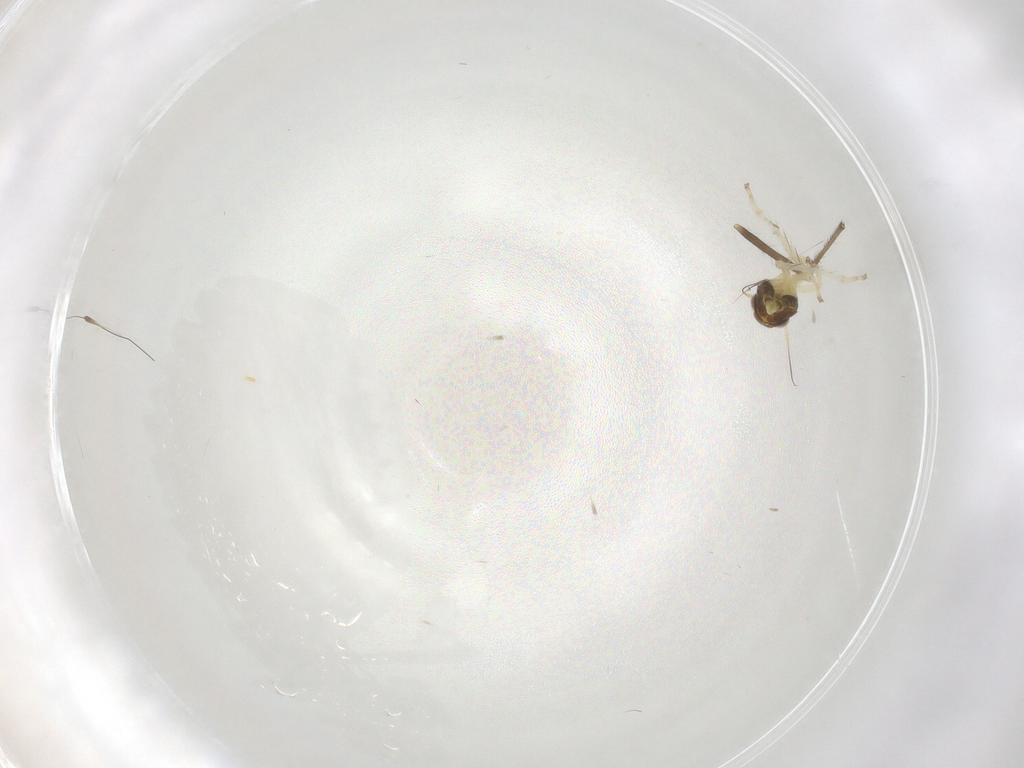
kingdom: Animalia
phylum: Arthropoda
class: Insecta
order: Diptera
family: Chironomidae
